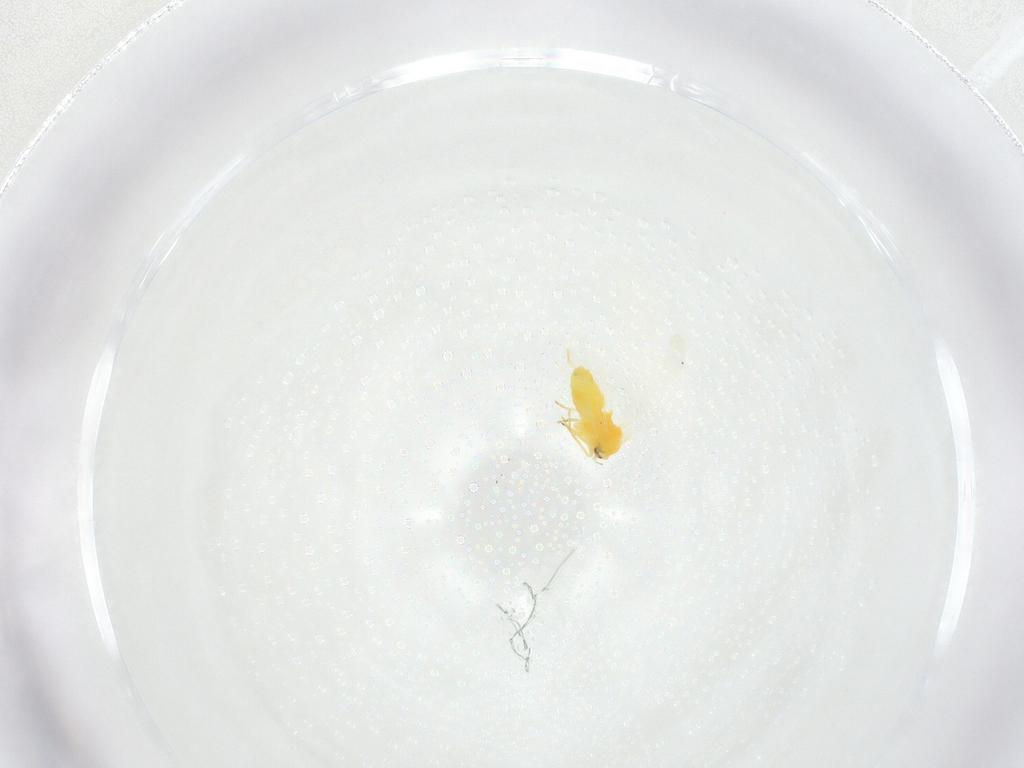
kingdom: Animalia
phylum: Arthropoda
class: Insecta
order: Hemiptera
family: Aleyrodidae
